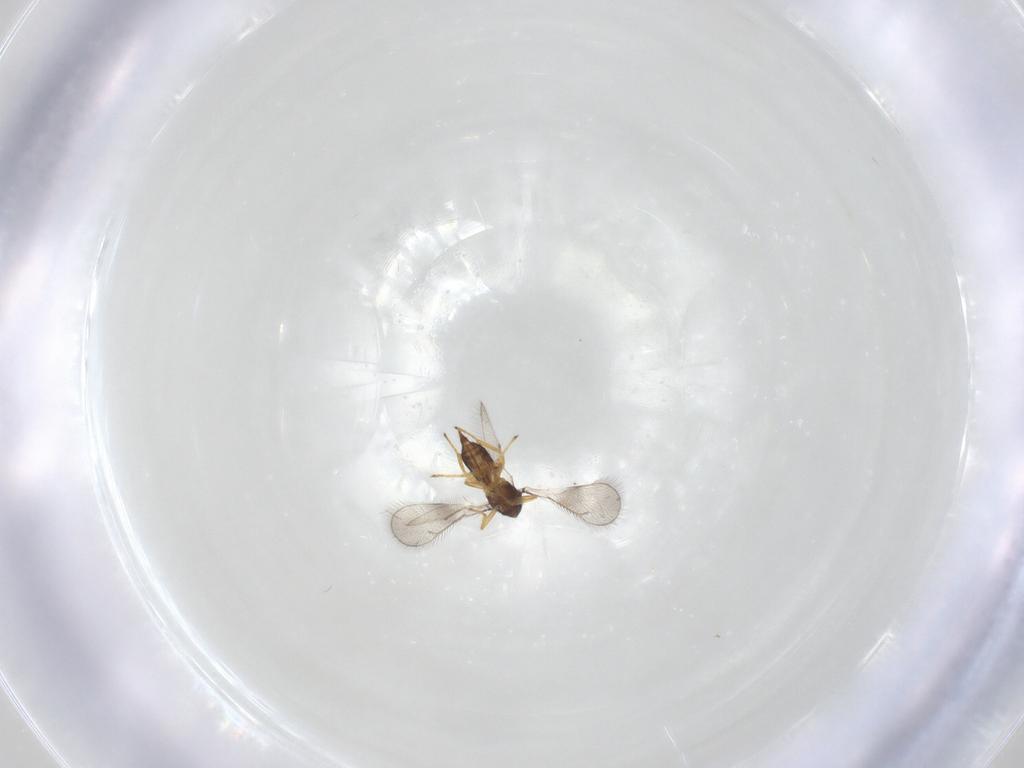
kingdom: Animalia
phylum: Arthropoda
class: Insecta
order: Hymenoptera
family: Eulophidae
